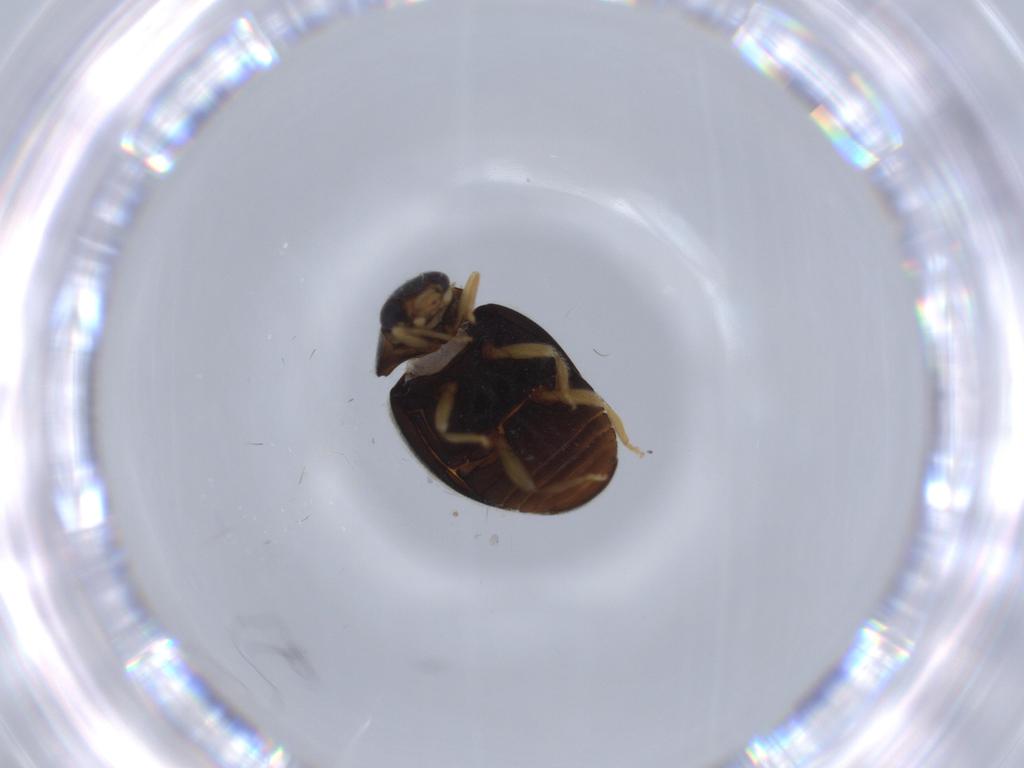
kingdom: Animalia
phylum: Arthropoda
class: Insecta
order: Coleoptera
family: Coccinellidae
